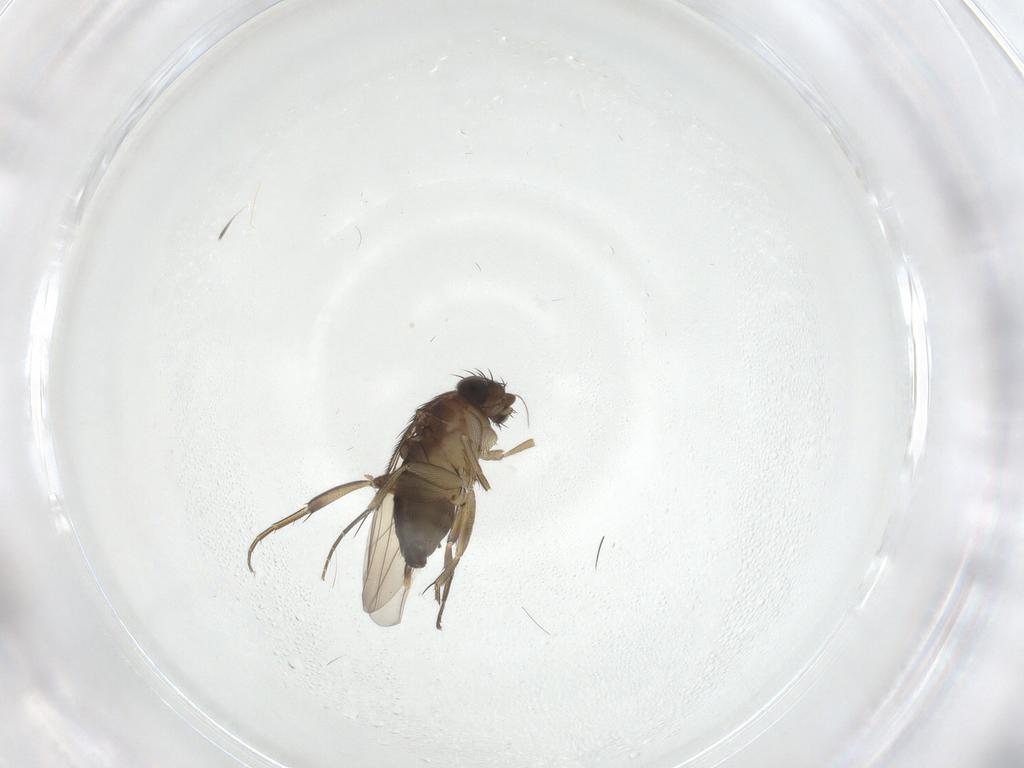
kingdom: Animalia
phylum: Arthropoda
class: Insecta
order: Diptera
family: Phoridae
